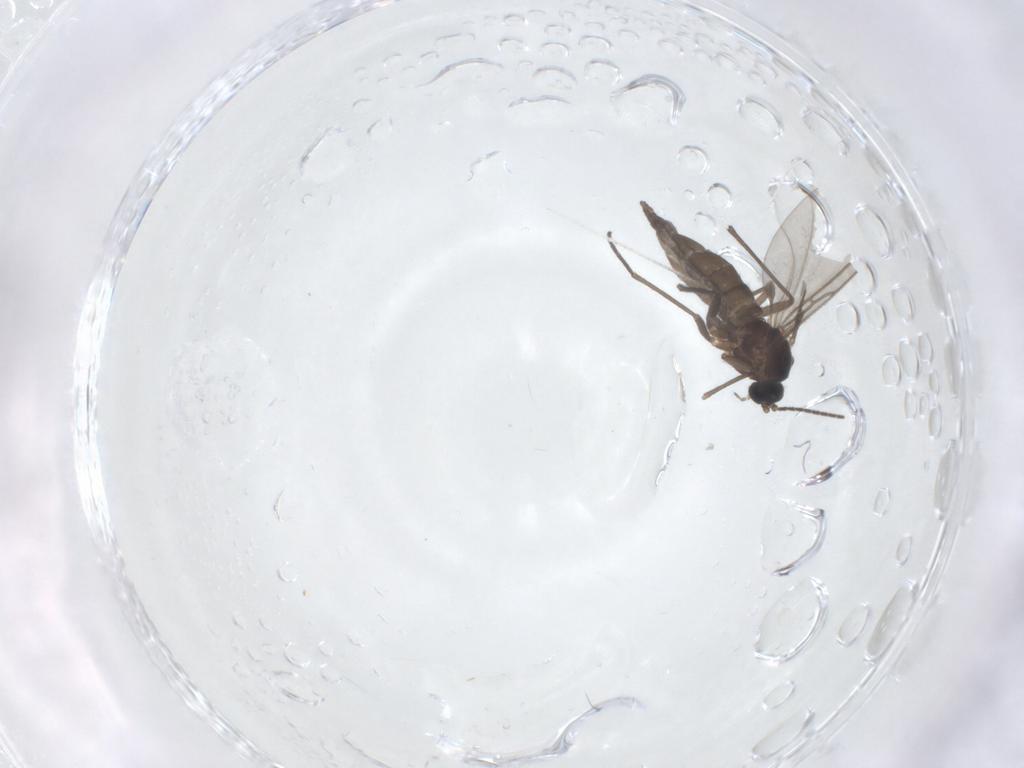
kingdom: Animalia
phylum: Arthropoda
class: Insecta
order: Diptera
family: Sciaridae
